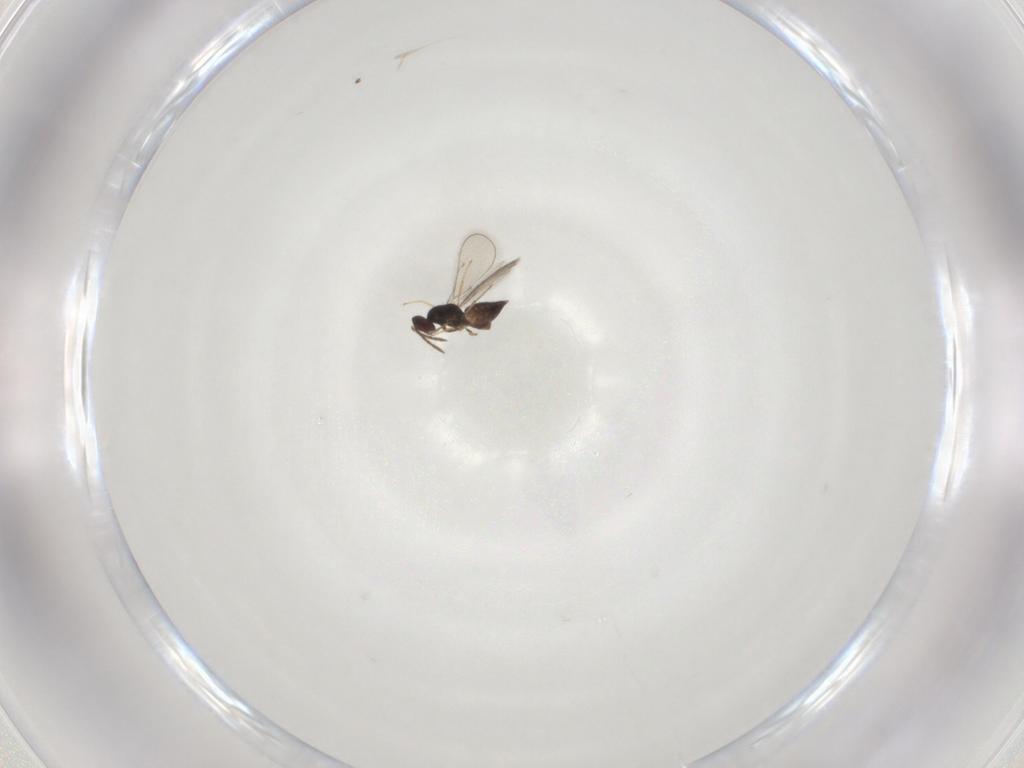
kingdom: Animalia
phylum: Arthropoda
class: Insecta
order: Hymenoptera
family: Eulophidae
